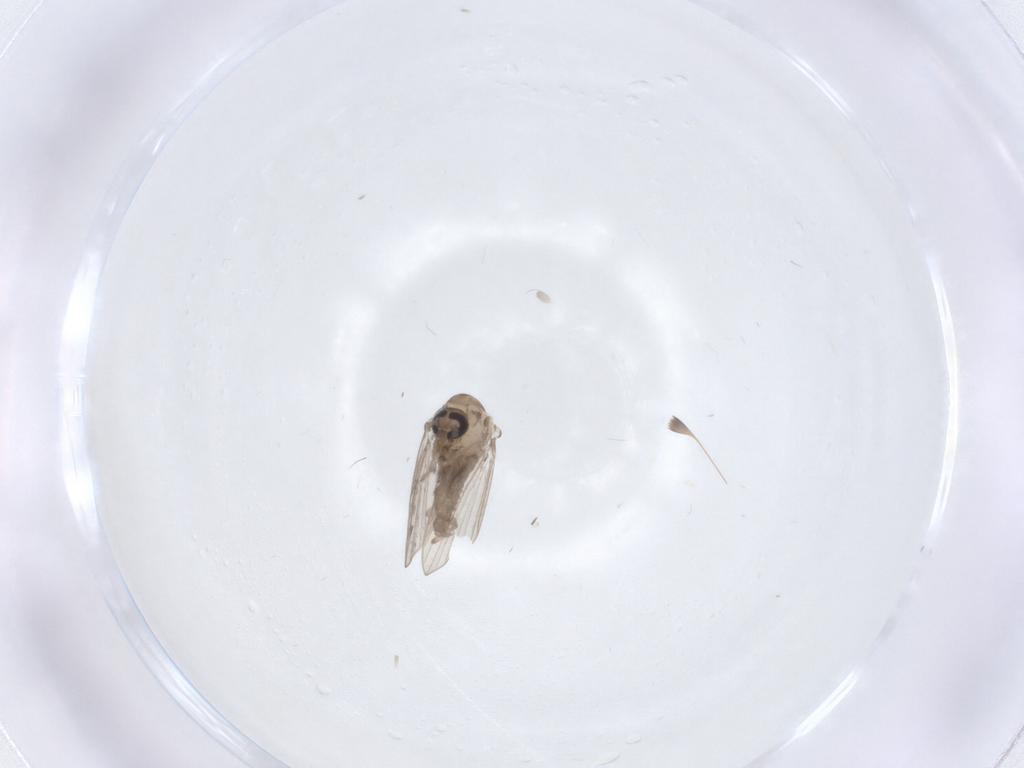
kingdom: Animalia
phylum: Arthropoda
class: Insecta
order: Diptera
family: Psychodidae
